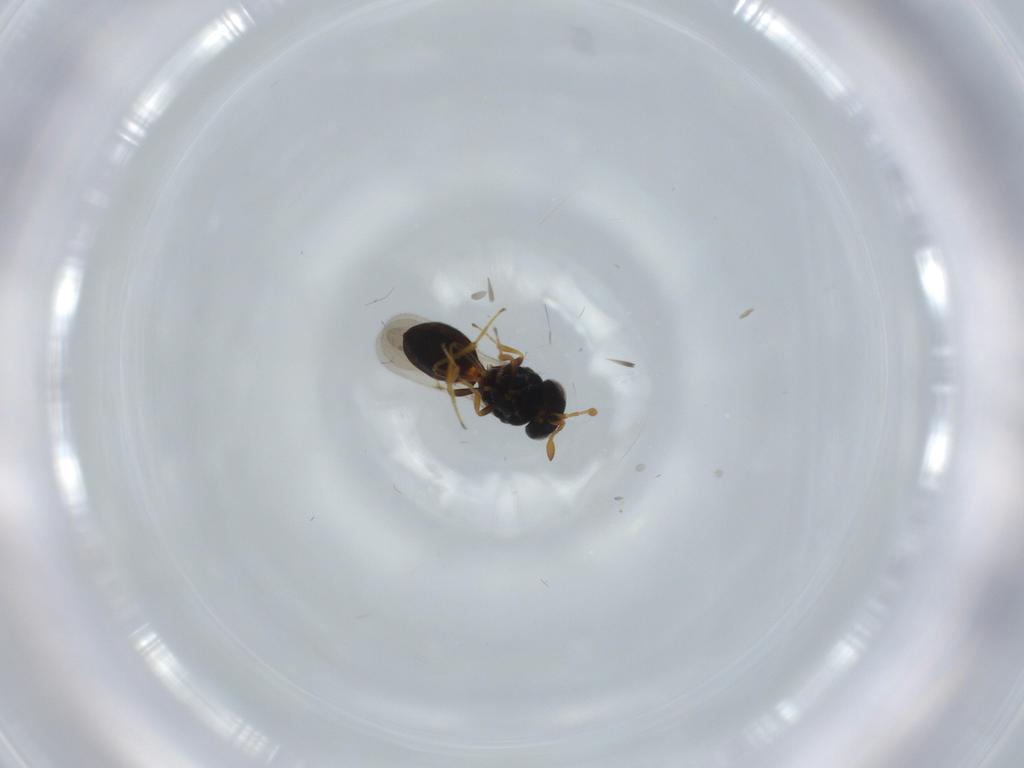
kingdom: Animalia
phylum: Arthropoda
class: Insecta
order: Hymenoptera
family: Scelionidae
